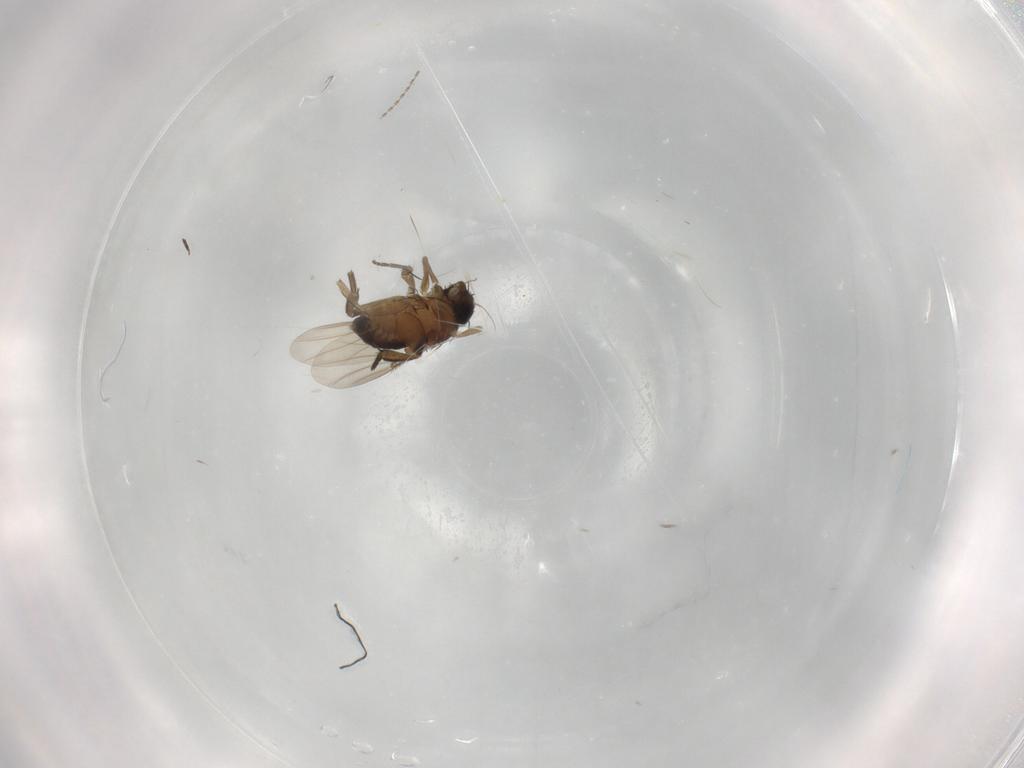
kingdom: Animalia
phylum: Arthropoda
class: Insecta
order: Diptera
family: Phoridae
